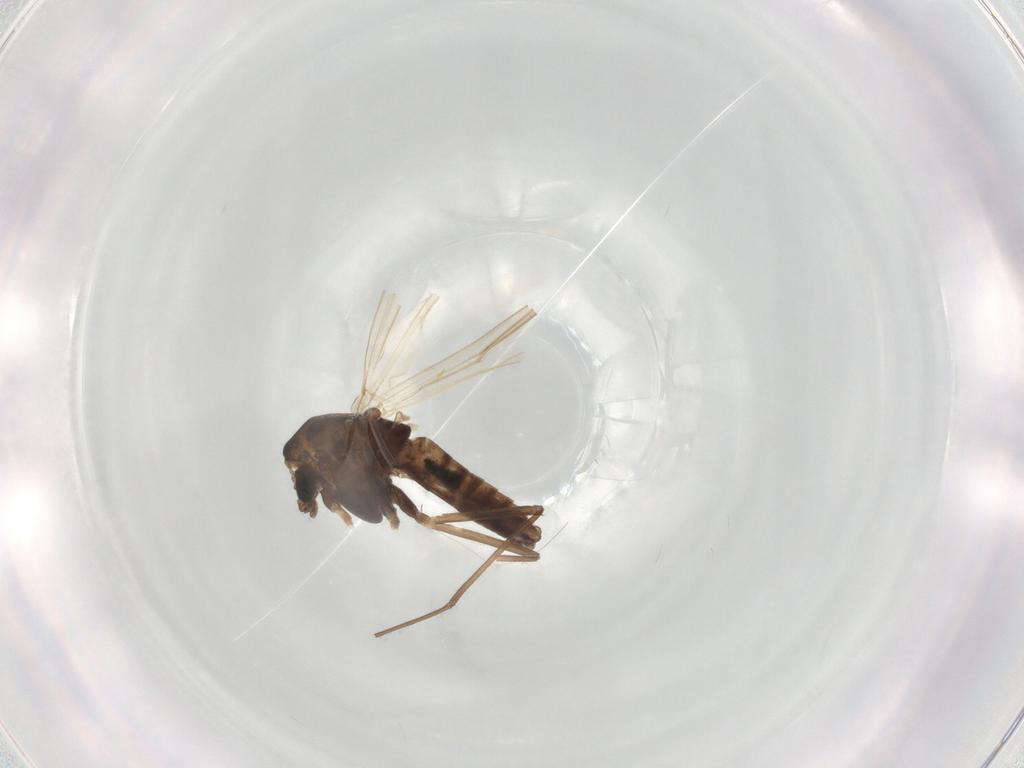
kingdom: Animalia
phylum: Arthropoda
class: Insecta
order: Diptera
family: Chironomidae
